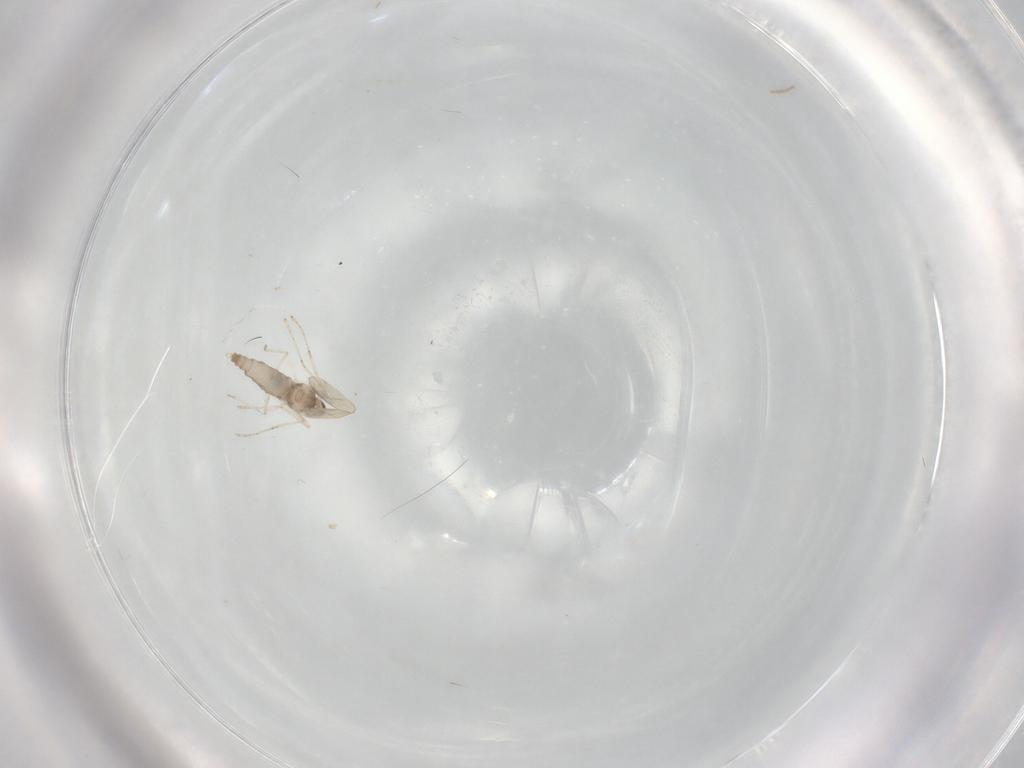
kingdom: Animalia
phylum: Arthropoda
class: Insecta
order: Diptera
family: Cecidomyiidae
